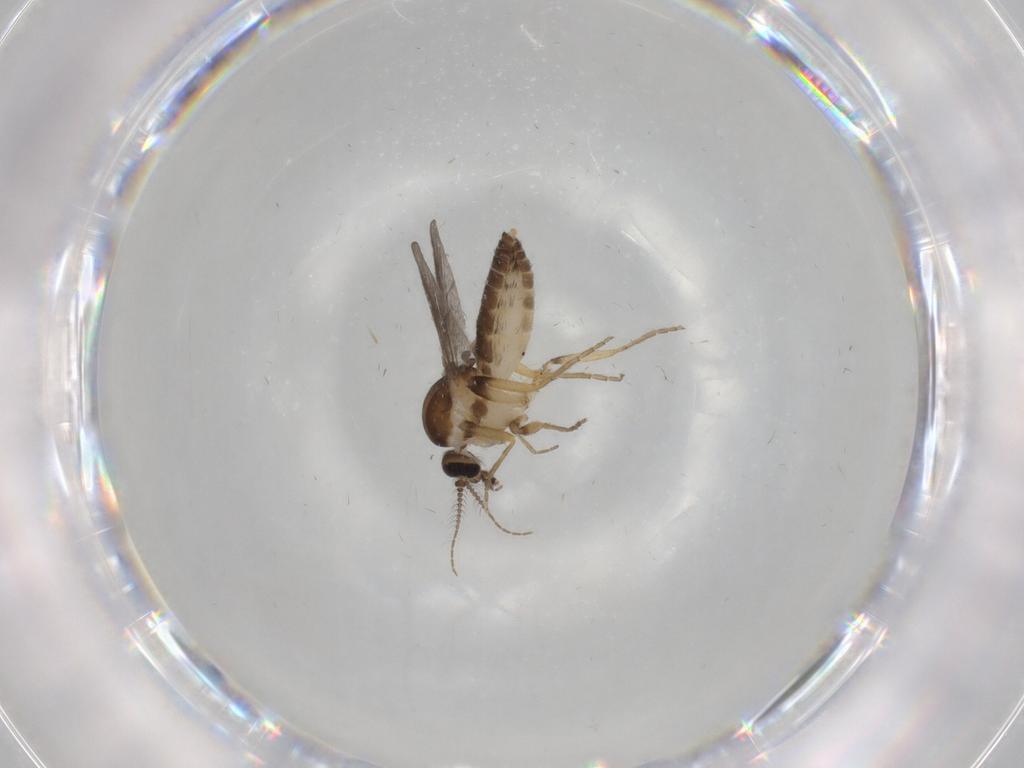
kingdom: Animalia
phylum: Arthropoda
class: Insecta
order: Diptera
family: Ceratopogonidae
